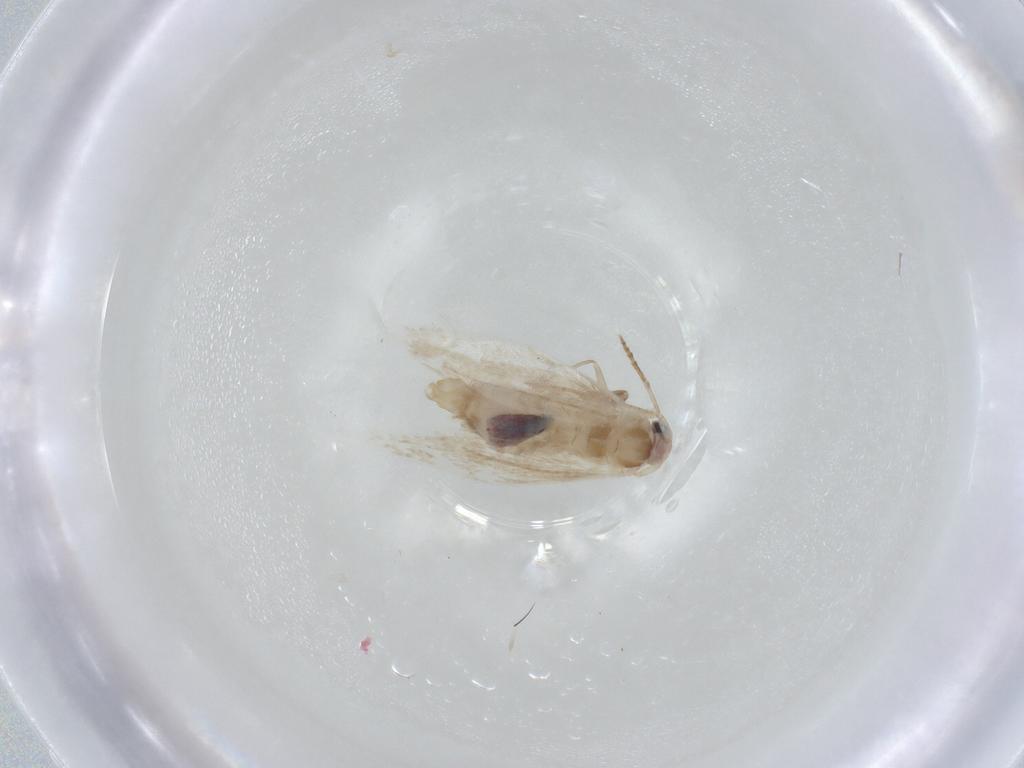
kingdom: Animalia
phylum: Arthropoda
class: Insecta
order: Lepidoptera
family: Bucculatricidae
